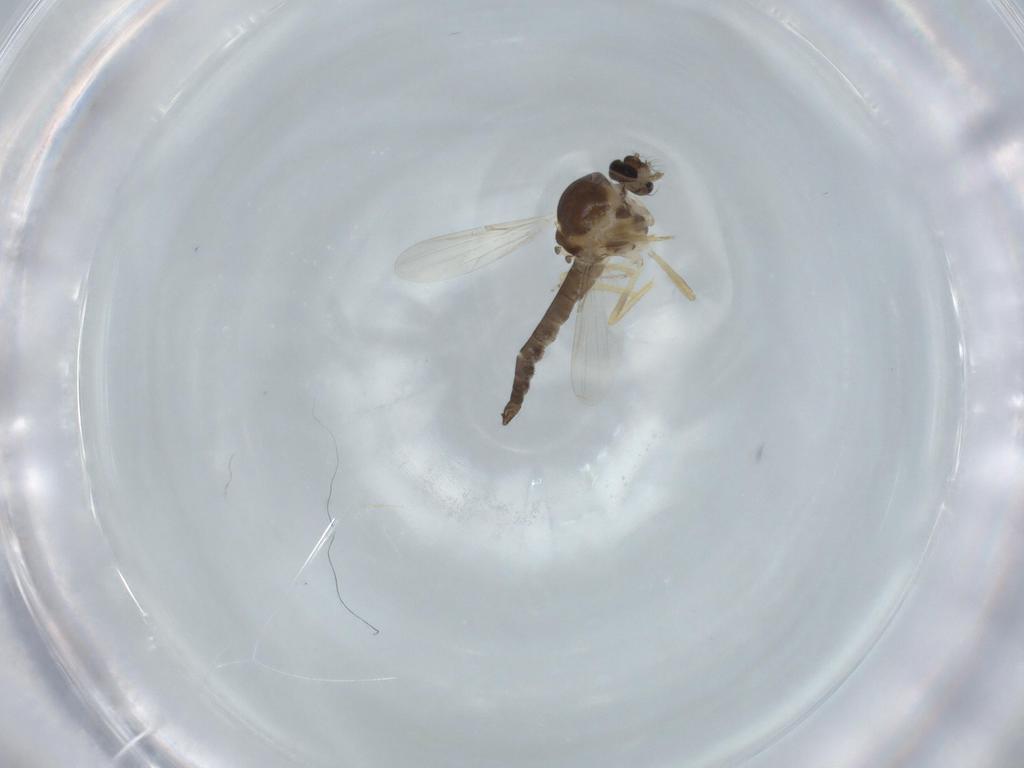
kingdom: Animalia
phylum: Arthropoda
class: Insecta
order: Diptera
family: Ceratopogonidae
